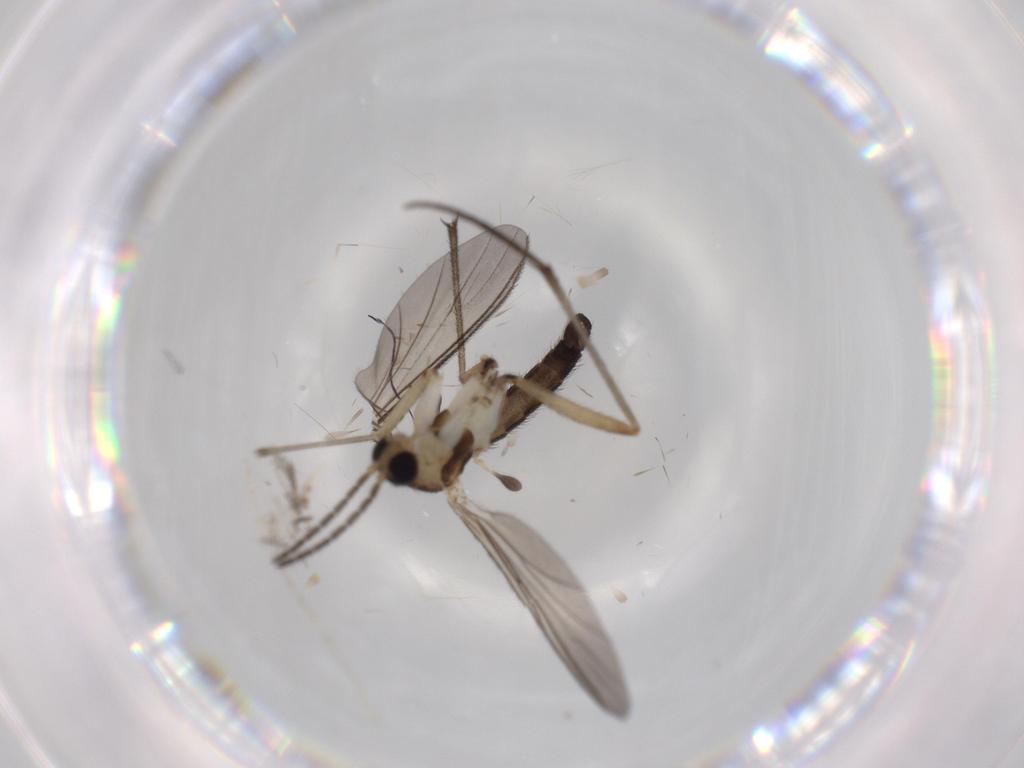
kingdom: Animalia
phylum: Arthropoda
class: Insecta
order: Diptera
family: Sciaridae
